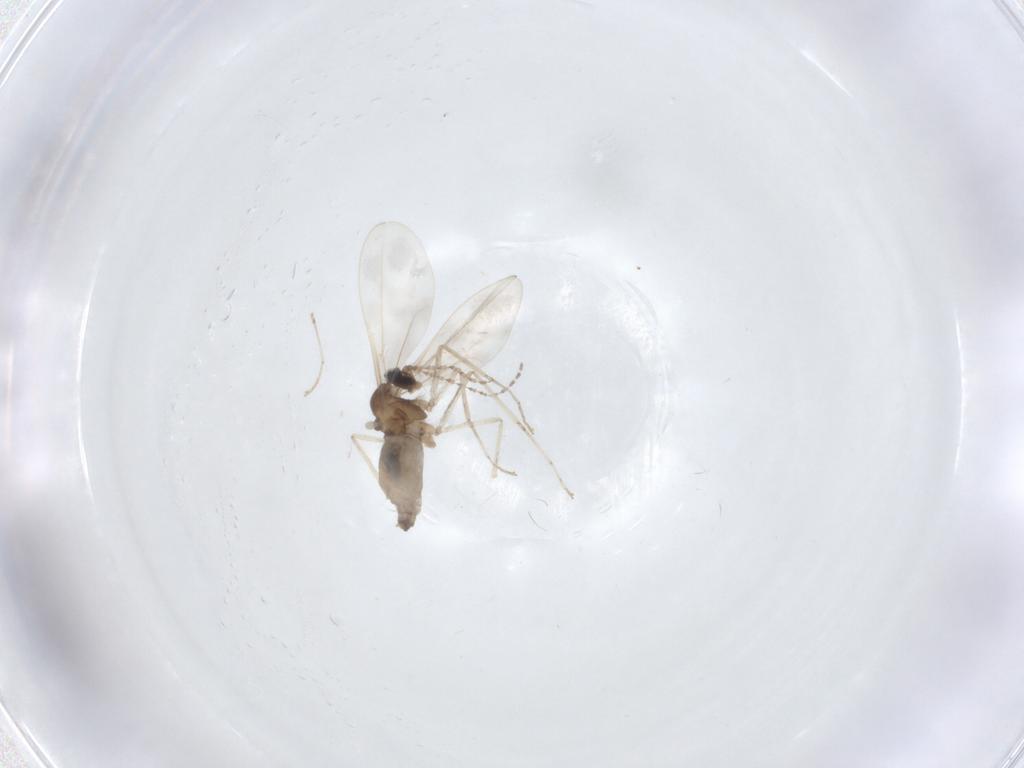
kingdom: Animalia
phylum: Arthropoda
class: Insecta
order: Diptera
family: Cecidomyiidae
